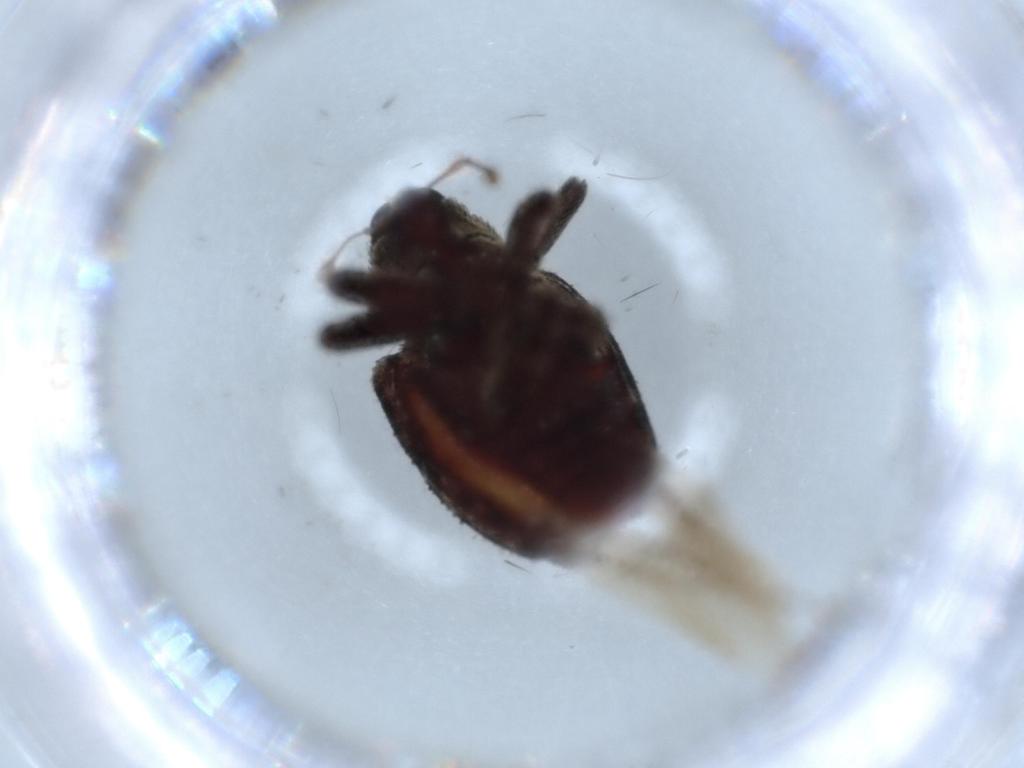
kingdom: Animalia
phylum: Arthropoda
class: Insecta
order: Coleoptera
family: Curculionidae
